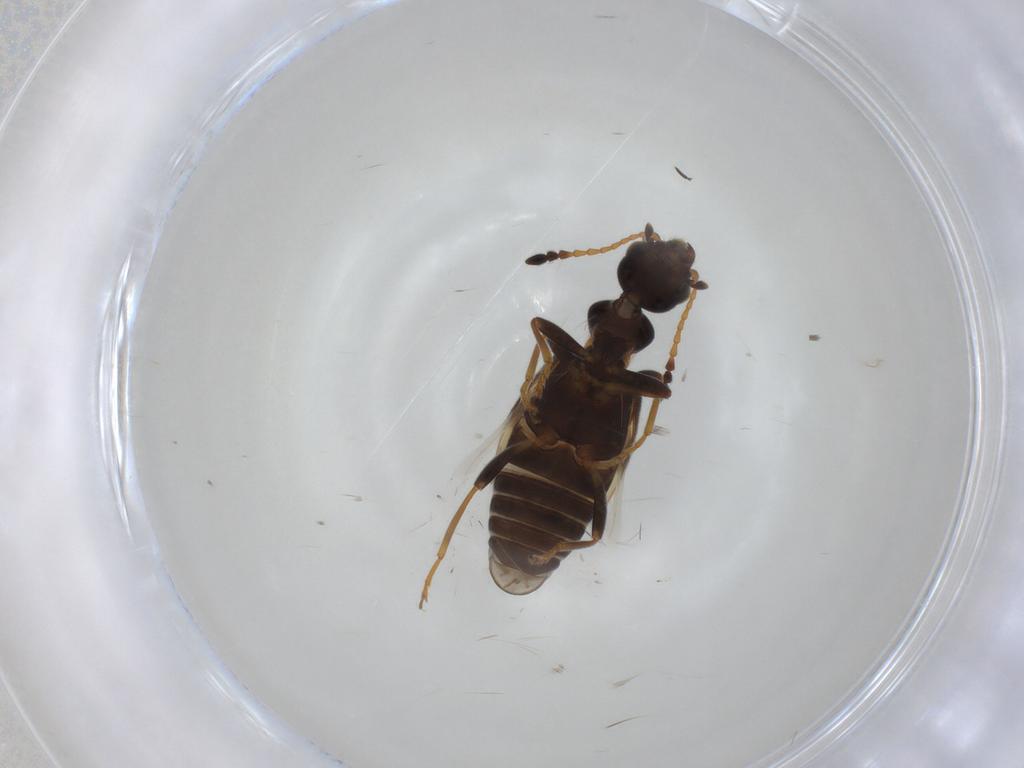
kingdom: Animalia
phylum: Arthropoda
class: Insecta
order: Coleoptera
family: Anthicidae
